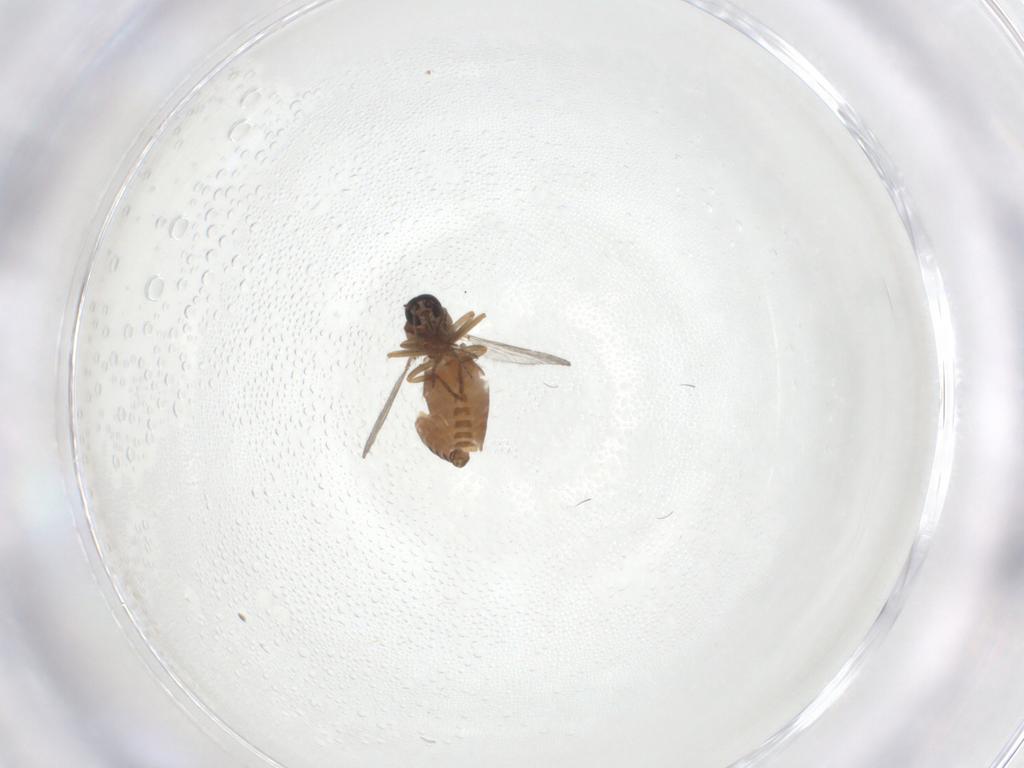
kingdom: Animalia
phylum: Arthropoda
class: Insecta
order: Diptera
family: Ceratopogonidae
